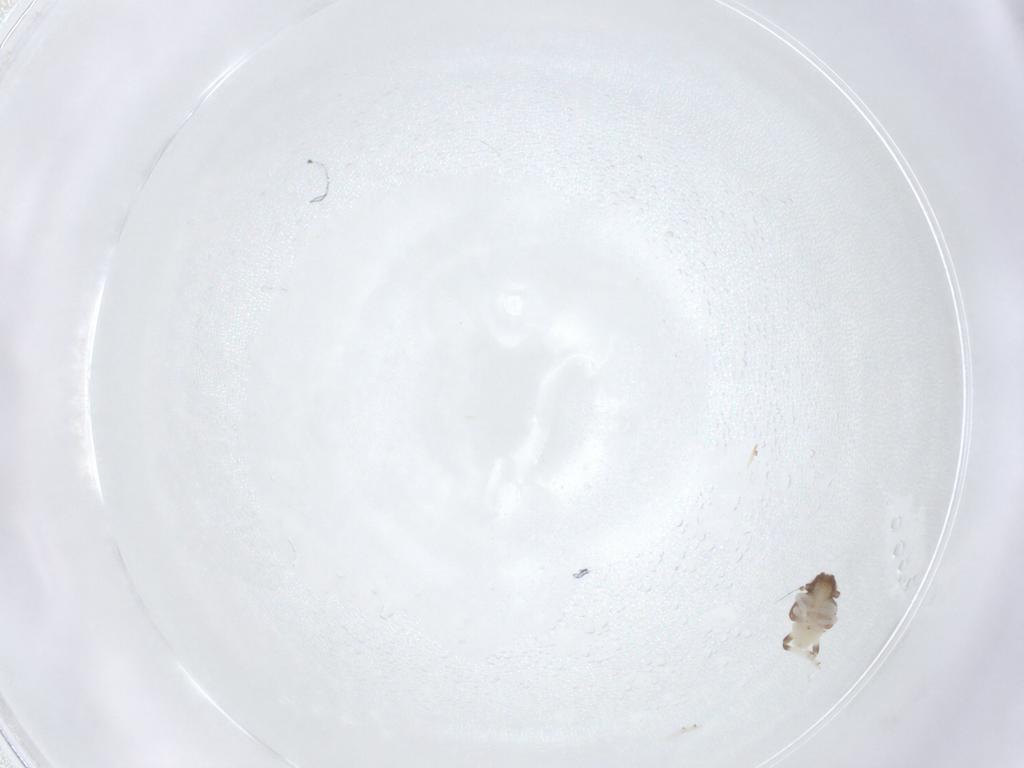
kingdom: Animalia
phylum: Arthropoda
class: Insecta
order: Hemiptera
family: Nogodinidae
